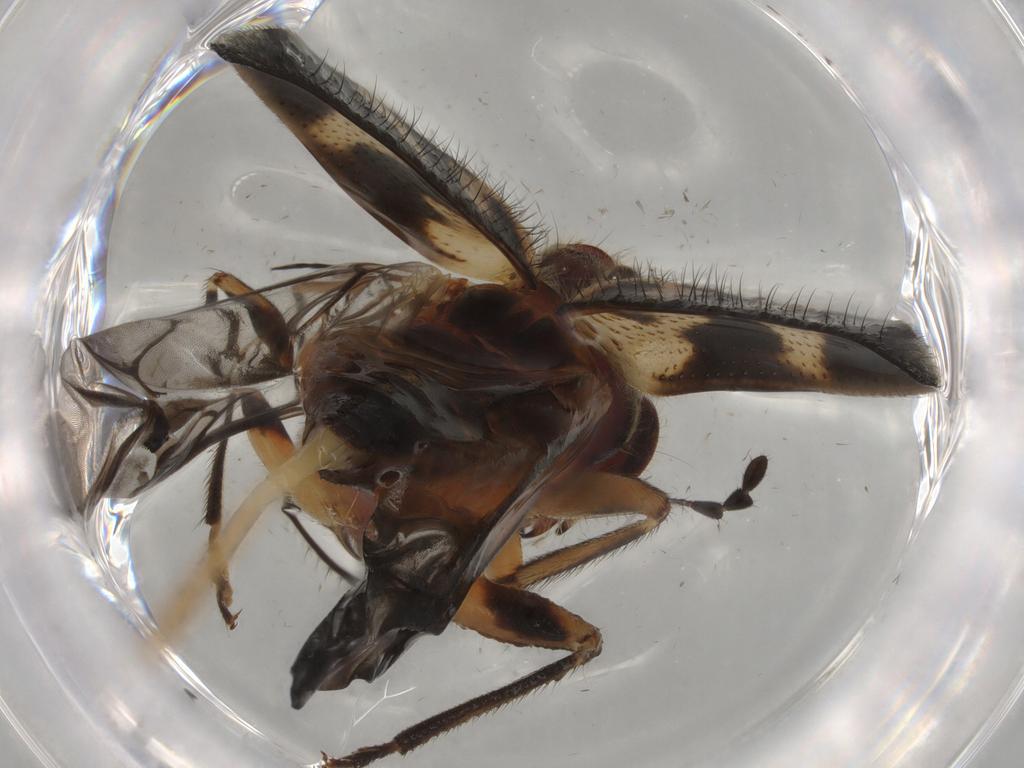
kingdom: Animalia
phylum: Arthropoda
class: Insecta
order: Coleoptera
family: Cleridae
